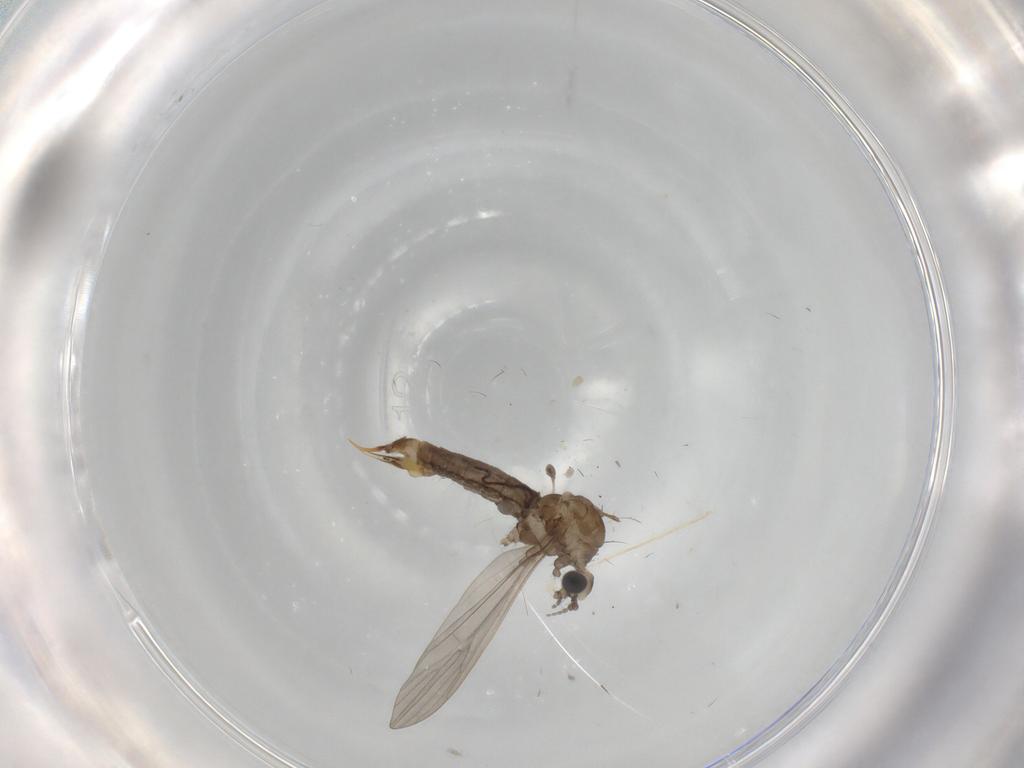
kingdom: Animalia
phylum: Arthropoda
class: Insecta
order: Diptera
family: Limoniidae
